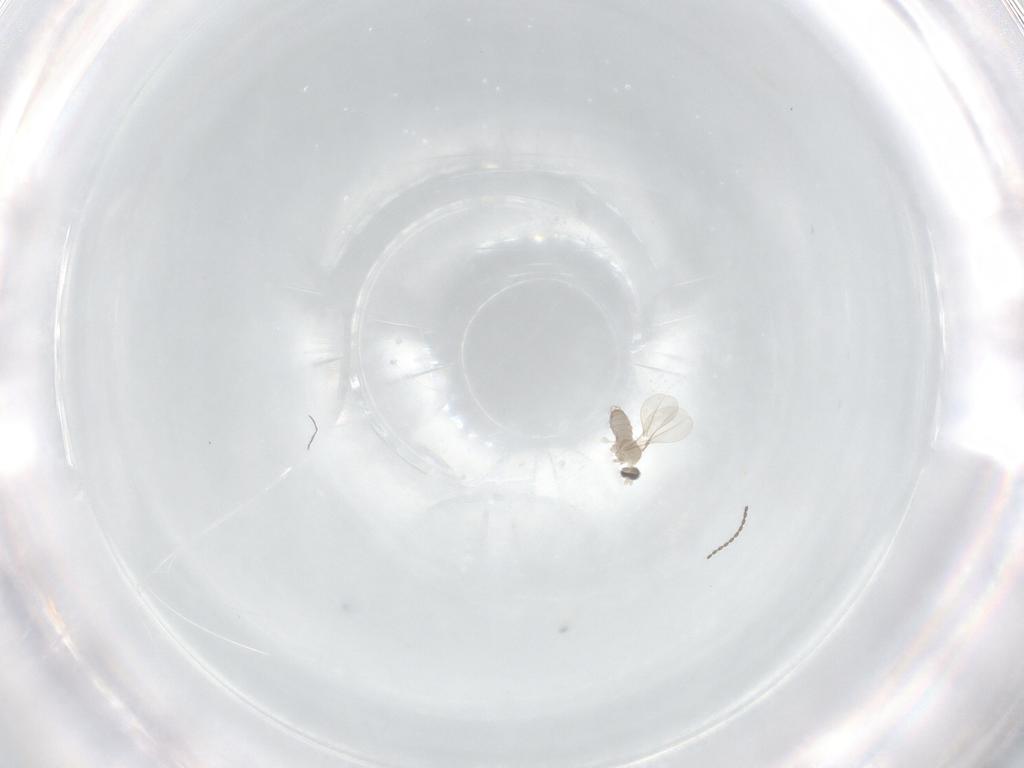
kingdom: Animalia
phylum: Arthropoda
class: Insecta
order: Diptera
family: Cecidomyiidae
